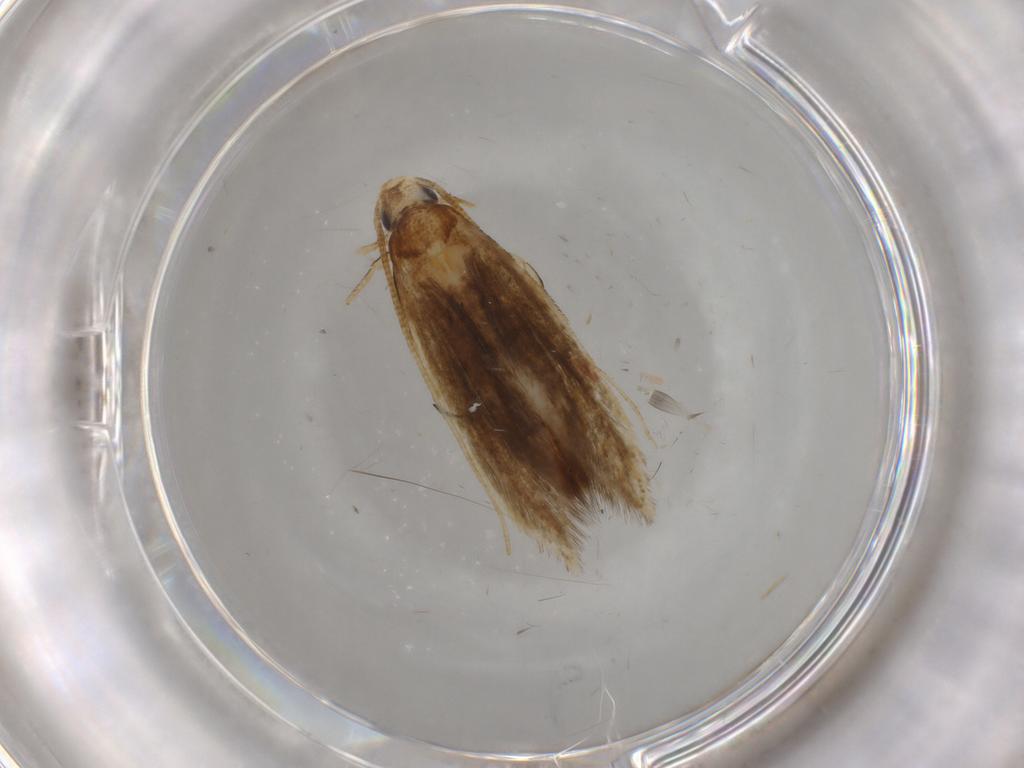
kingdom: Animalia
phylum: Arthropoda
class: Insecta
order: Lepidoptera
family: Tineidae
